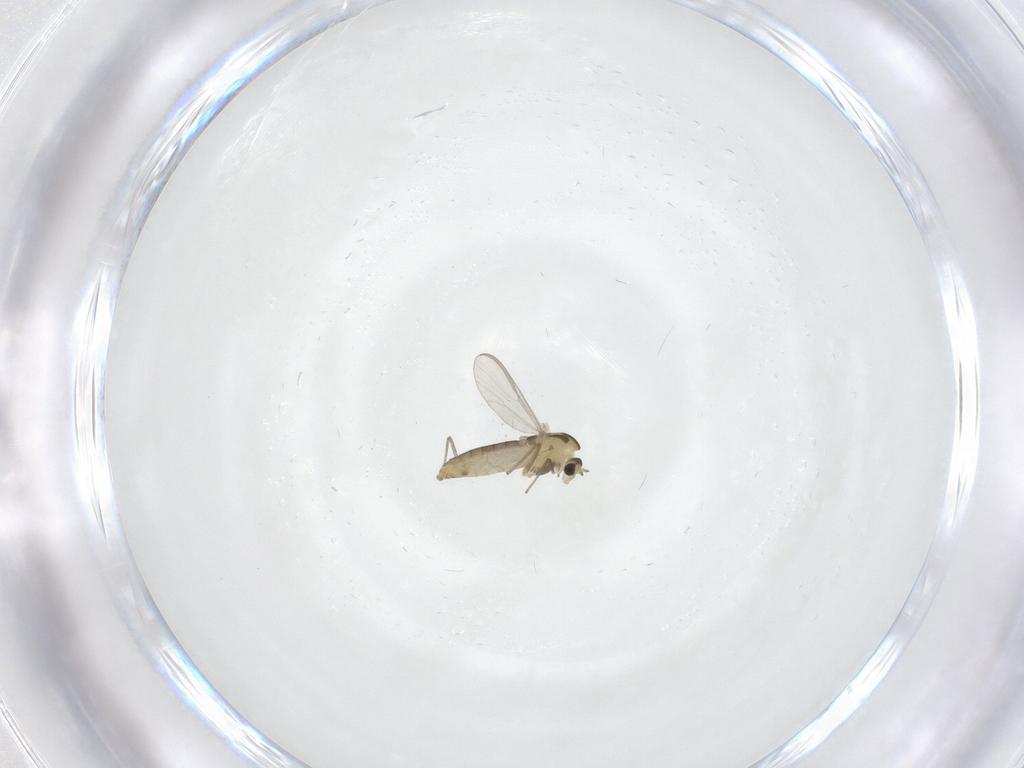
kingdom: Animalia
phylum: Arthropoda
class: Insecta
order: Diptera
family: Chironomidae
